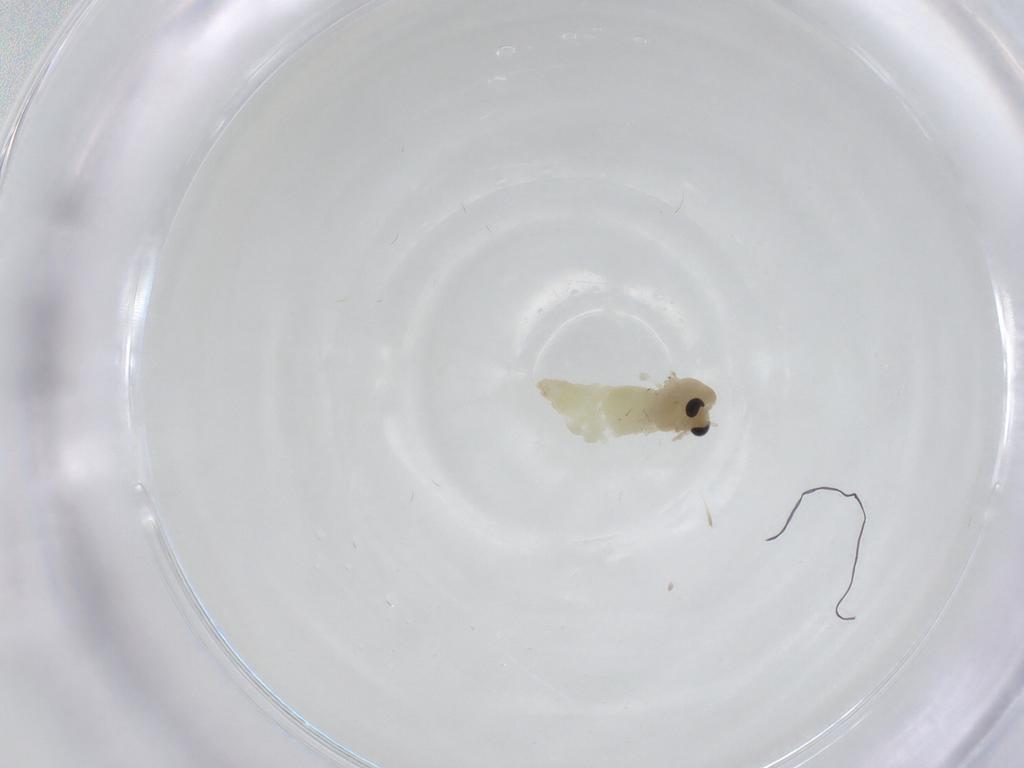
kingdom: Animalia
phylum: Arthropoda
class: Insecta
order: Diptera
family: Chironomidae
